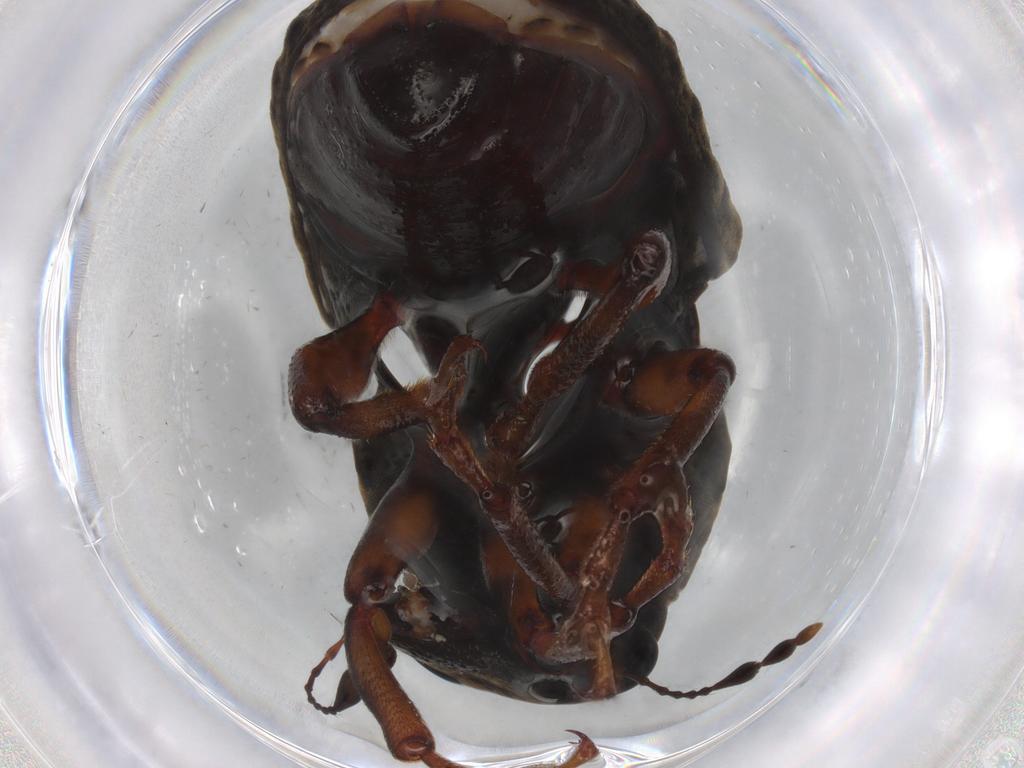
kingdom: Animalia
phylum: Arthropoda
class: Insecta
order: Coleoptera
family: Anthribidae
